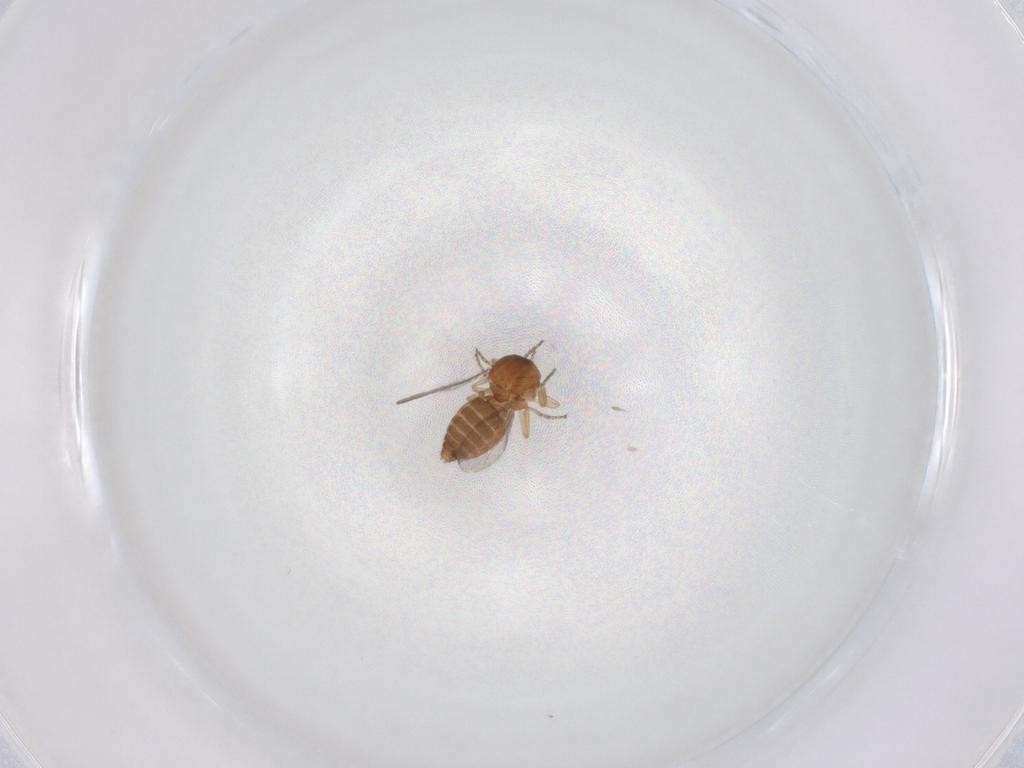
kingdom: Animalia
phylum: Arthropoda
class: Insecta
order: Diptera
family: Ceratopogonidae
